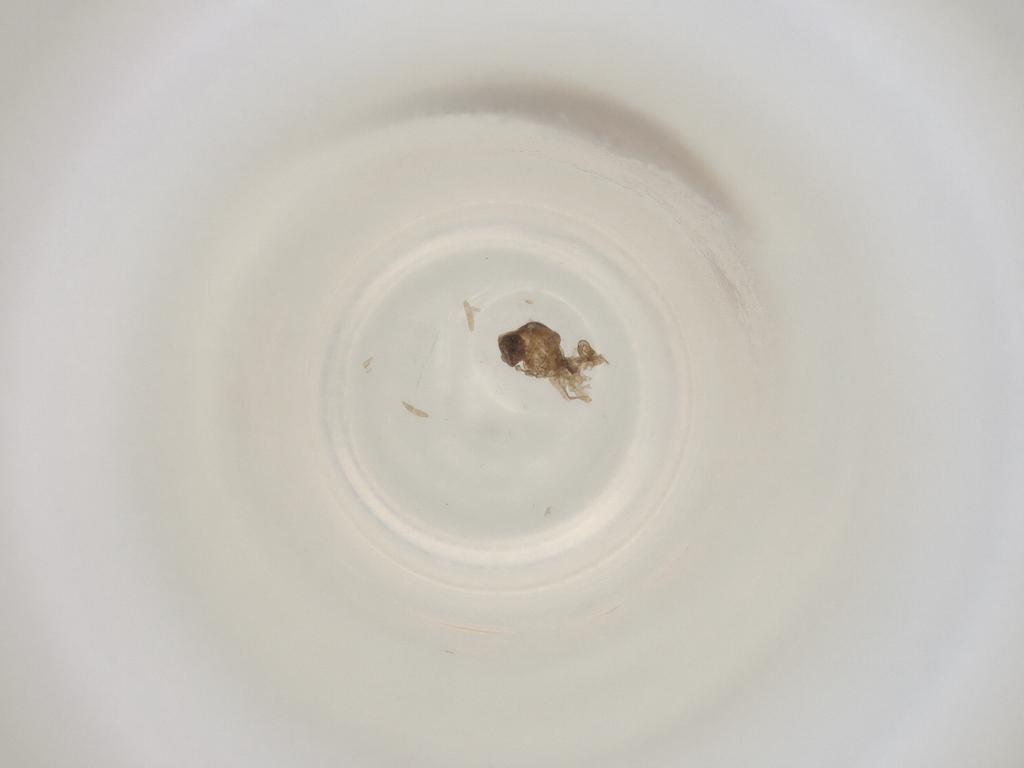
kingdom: Animalia
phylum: Arthropoda
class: Insecta
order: Diptera
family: Cecidomyiidae
